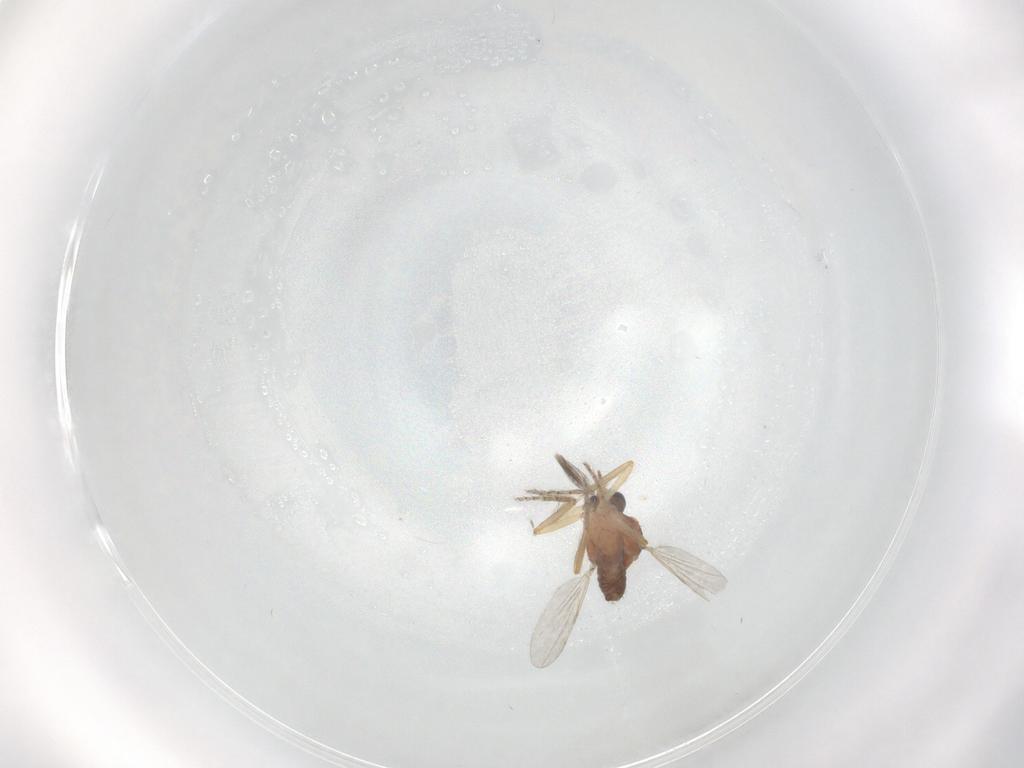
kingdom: Animalia
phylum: Arthropoda
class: Insecta
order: Diptera
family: Ceratopogonidae
